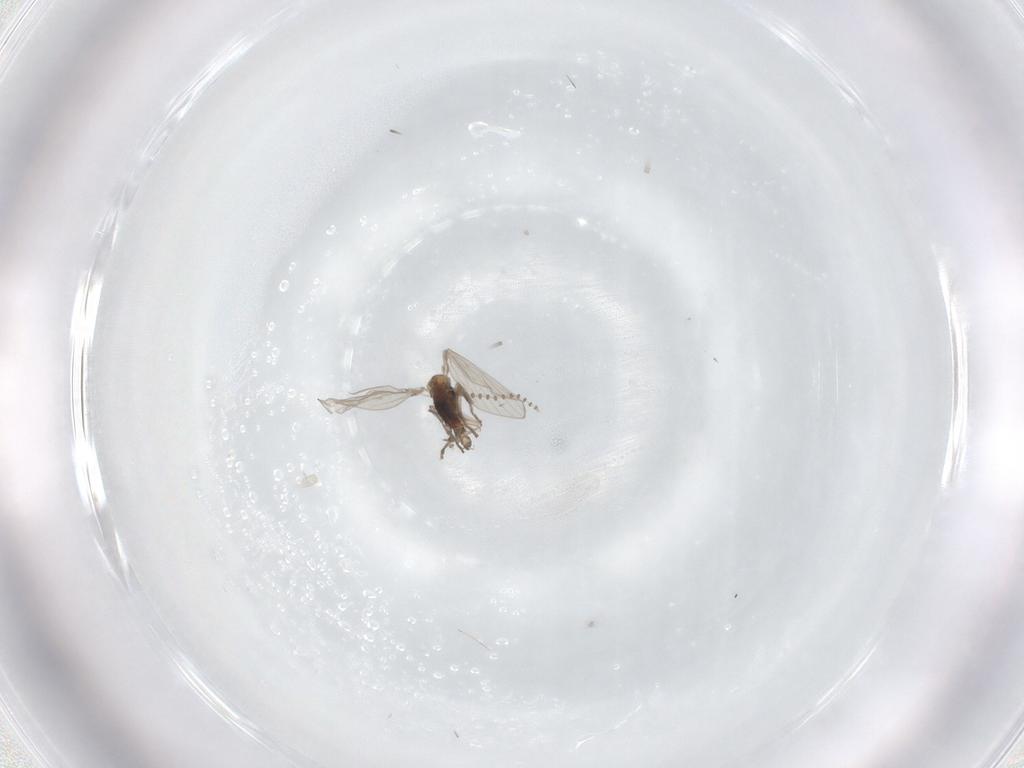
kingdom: Animalia
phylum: Arthropoda
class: Insecta
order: Diptera
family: Psychodidae
